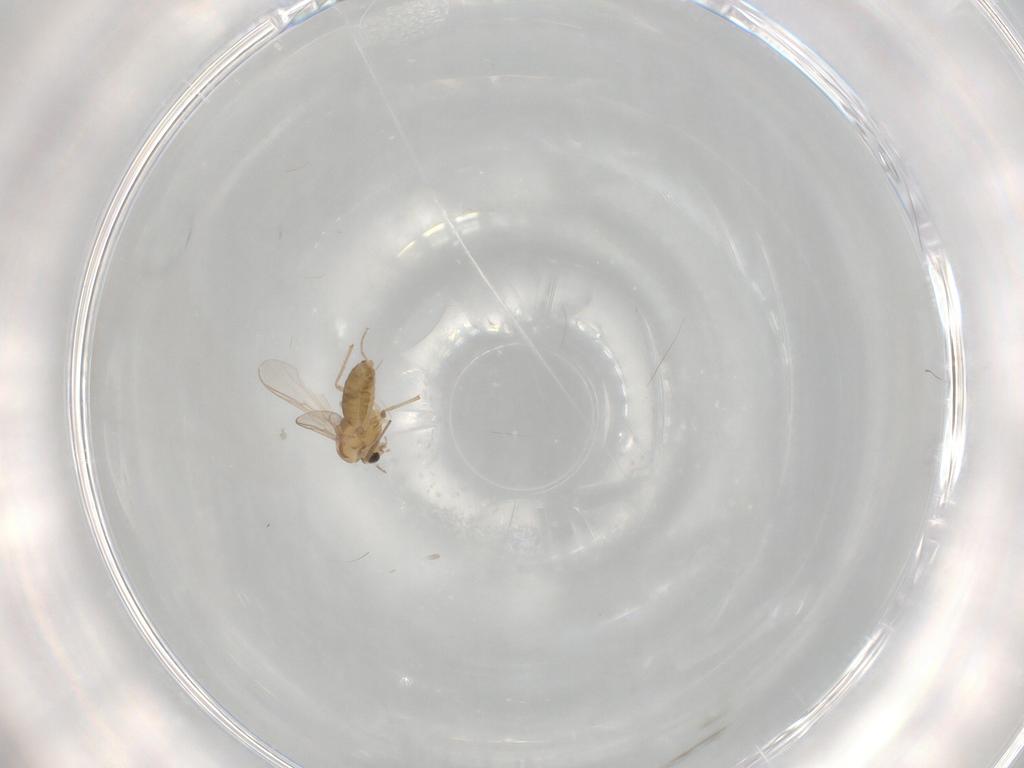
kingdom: Animalia
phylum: Arthropoda
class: Insecta
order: Diptera
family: Chironomidae
